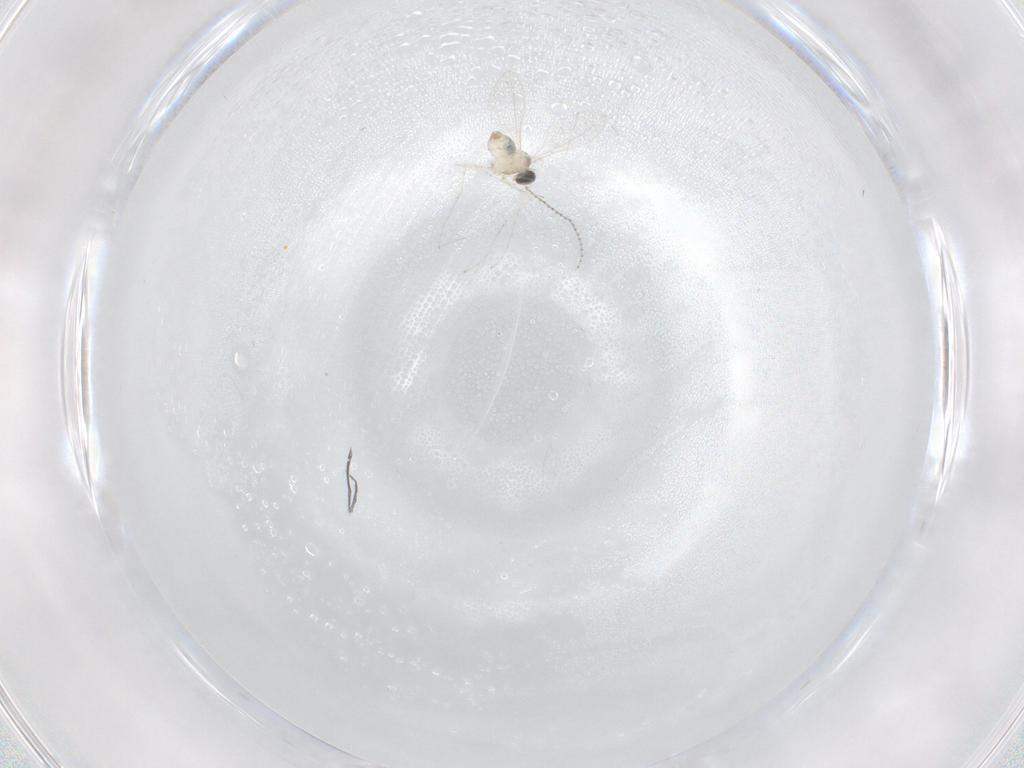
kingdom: Animalia
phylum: Arthropoda
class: Insecta
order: Diptera
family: Cecidomyiidae
